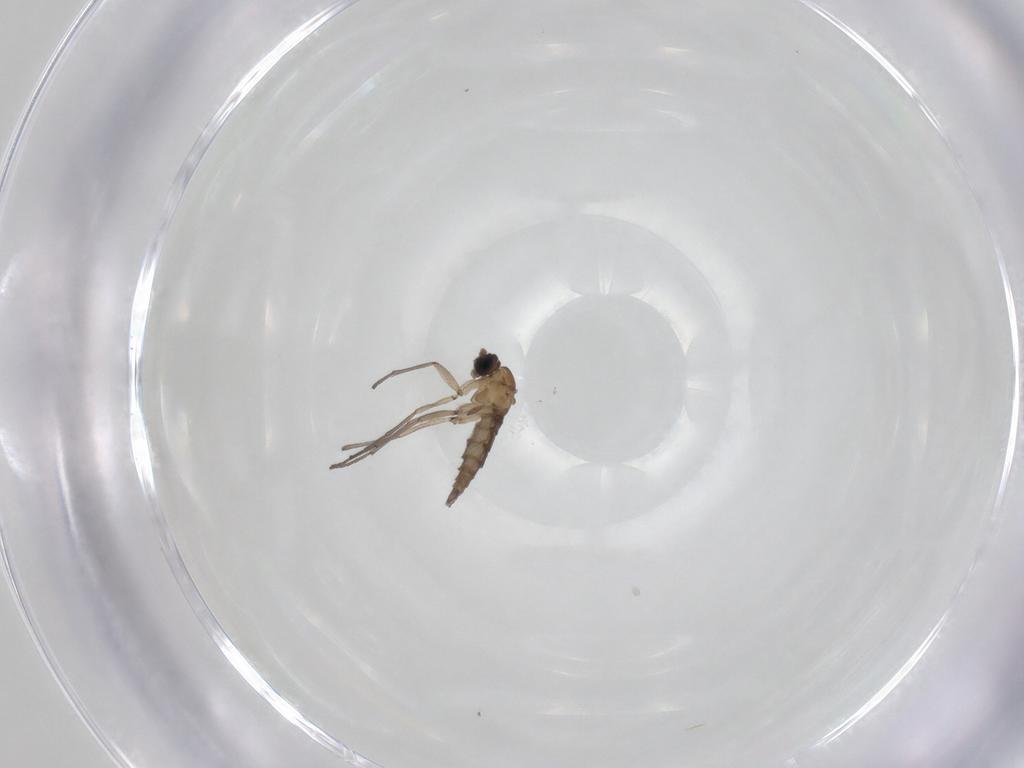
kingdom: Animalia
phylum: Arthropoda
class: Insecta
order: Diptera
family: Sciaridae
